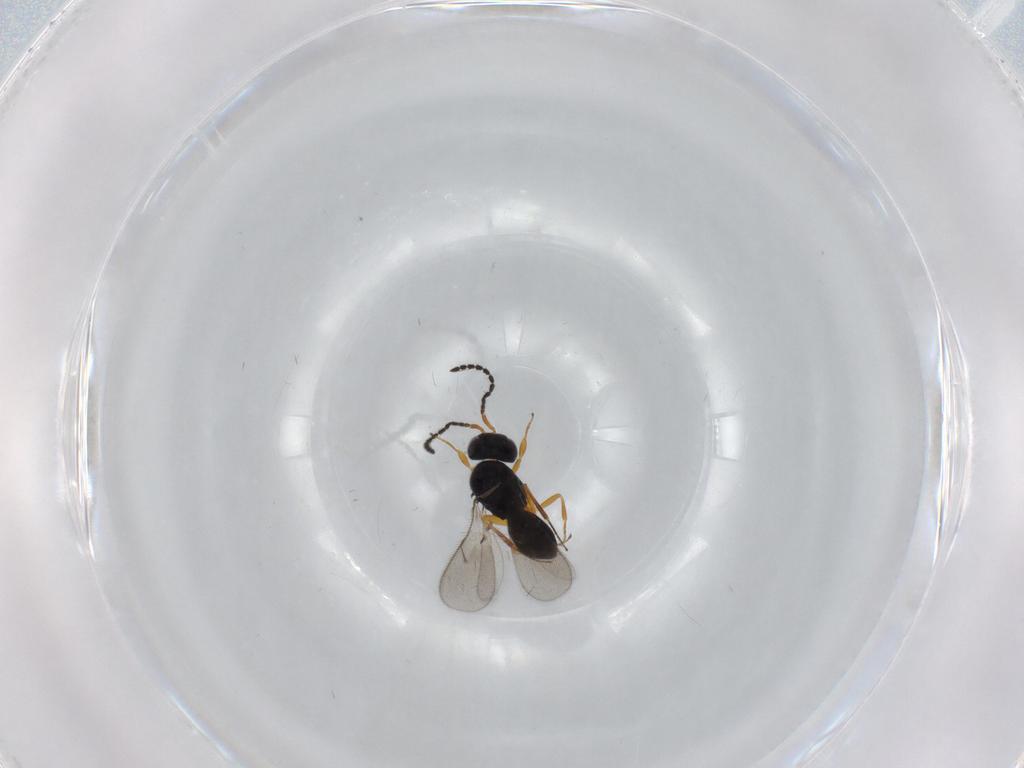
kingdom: Animalia
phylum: Arthropoda
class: Insecta
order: Hymenoptera
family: Scelionidae
